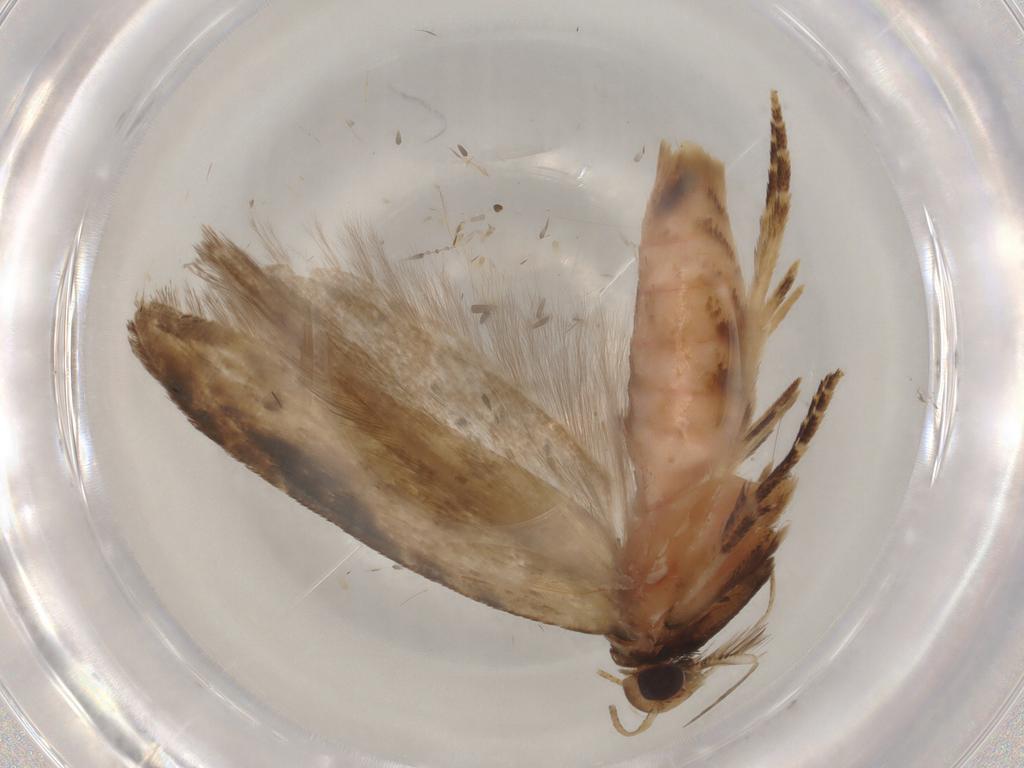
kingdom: Animalia
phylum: Arthropoda
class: Insecta
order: Lepidoptera
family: Gelechiidae
